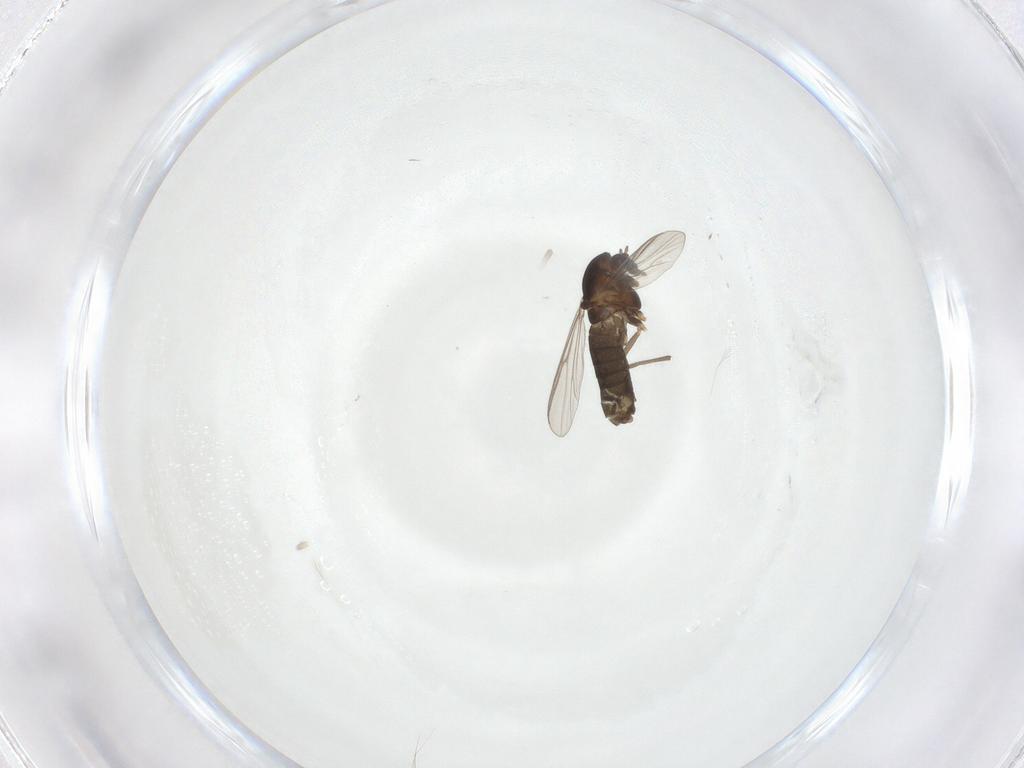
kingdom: Animalia
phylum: Arthropoda
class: Insecta
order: Diptera
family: Chironomidae
